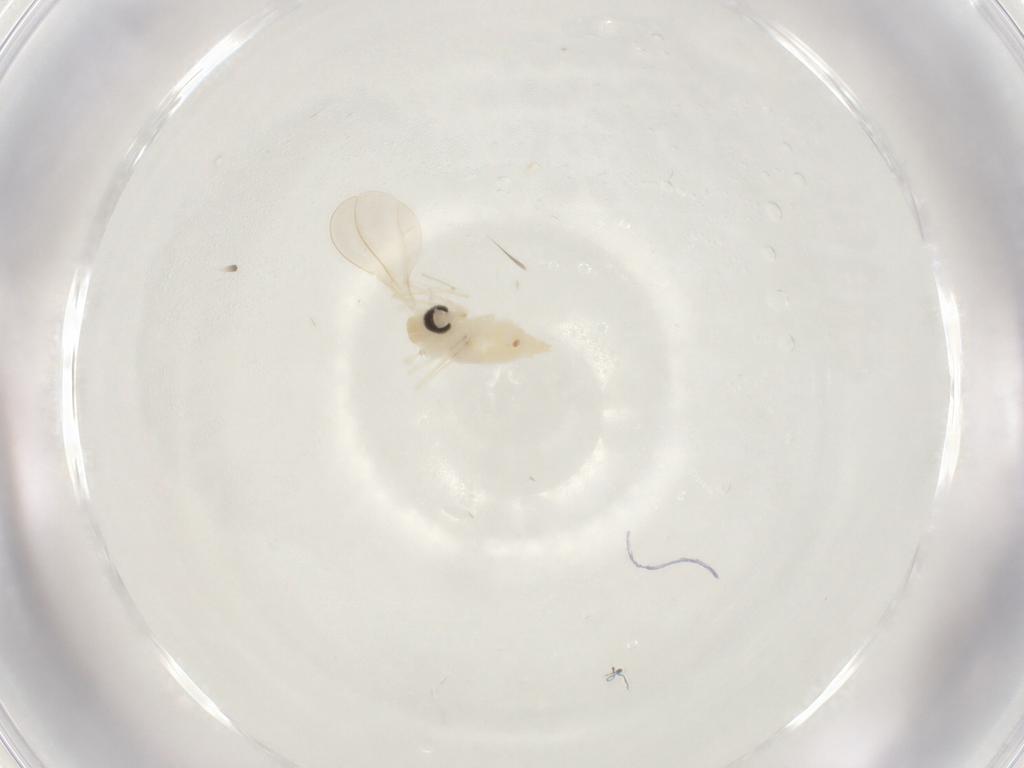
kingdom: Animalia
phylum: Arthropoda
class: Insecta
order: Diptera
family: Cecidomyiidae
